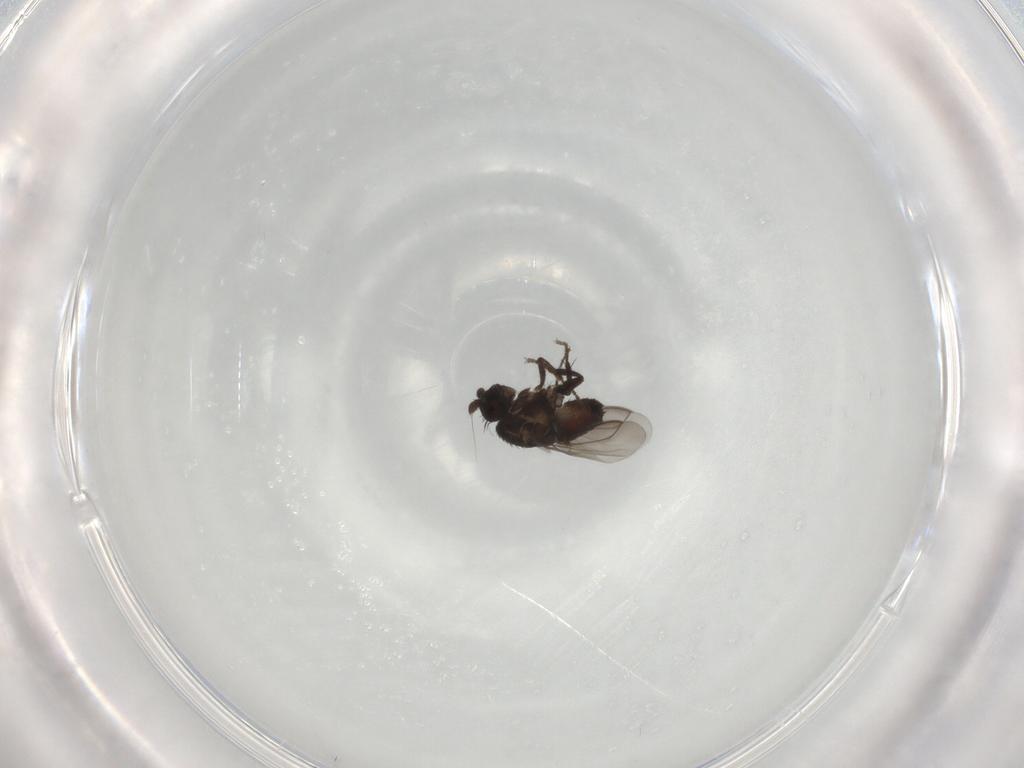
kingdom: Animalia
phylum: Arthropoda
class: Insecta
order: Diptera
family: Sphaeroceridae
